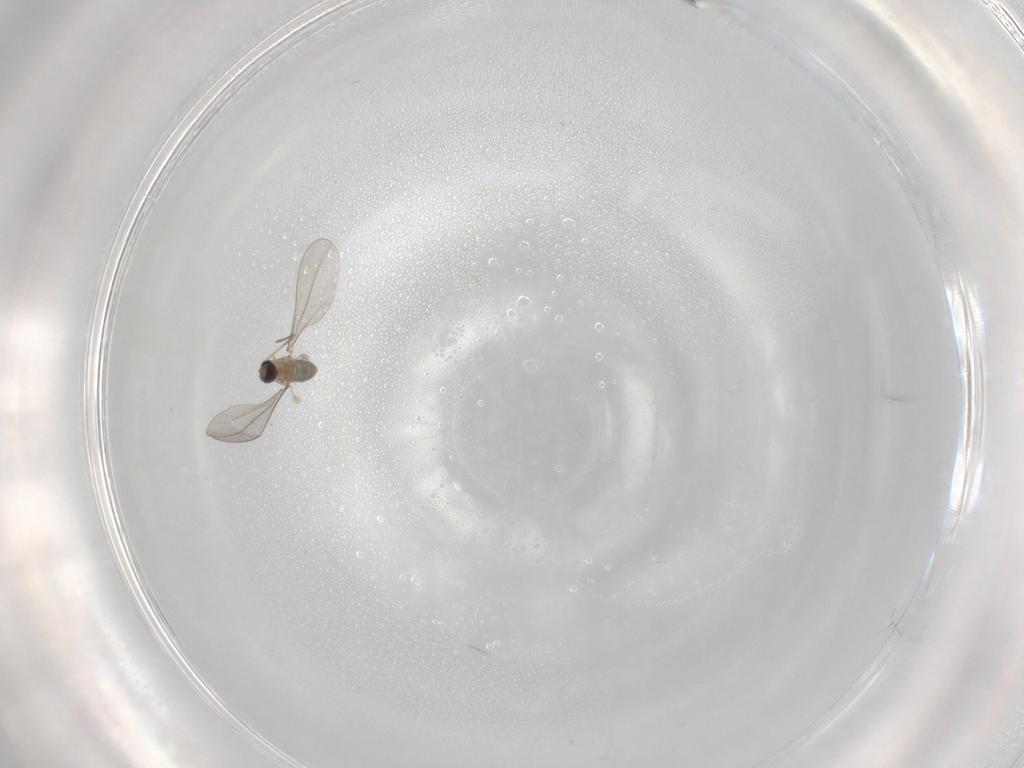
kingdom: Animalia
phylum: Arthropoda
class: Insecta
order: Diptera
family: Cecidomyiidae
